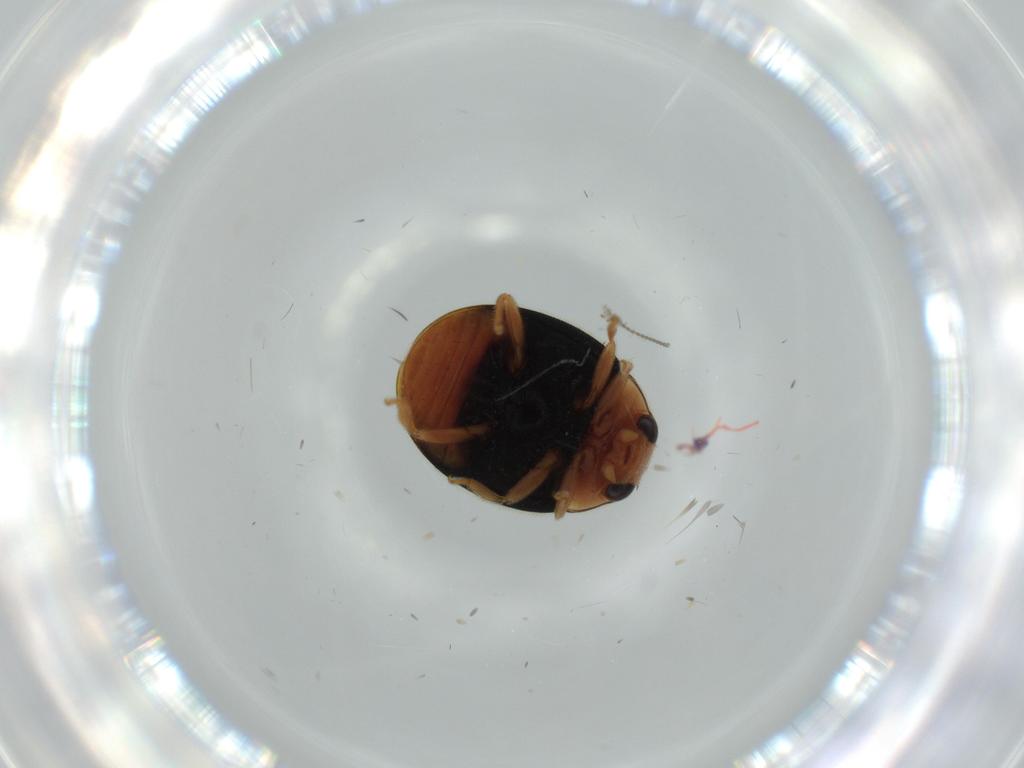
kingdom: Animalia
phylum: Arthropoda
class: Insecta
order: Coleoptera
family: Coccinellidae
